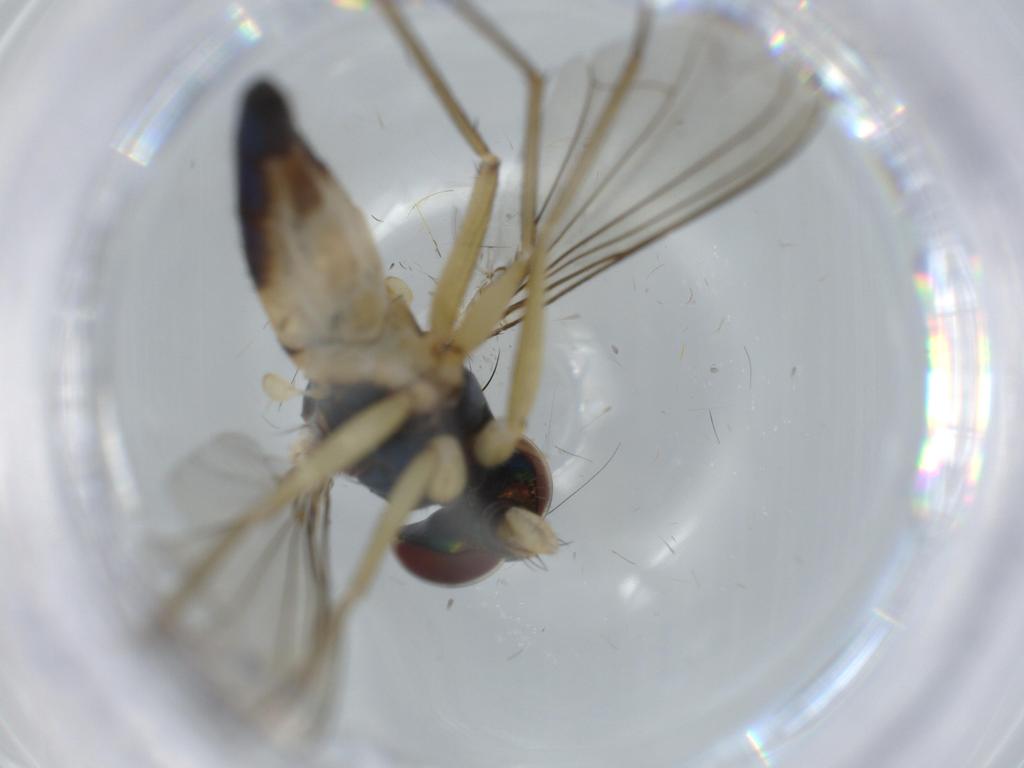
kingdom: Animalia
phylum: Arthropoda
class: Insecta
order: Diptera
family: Dolichopodidae
